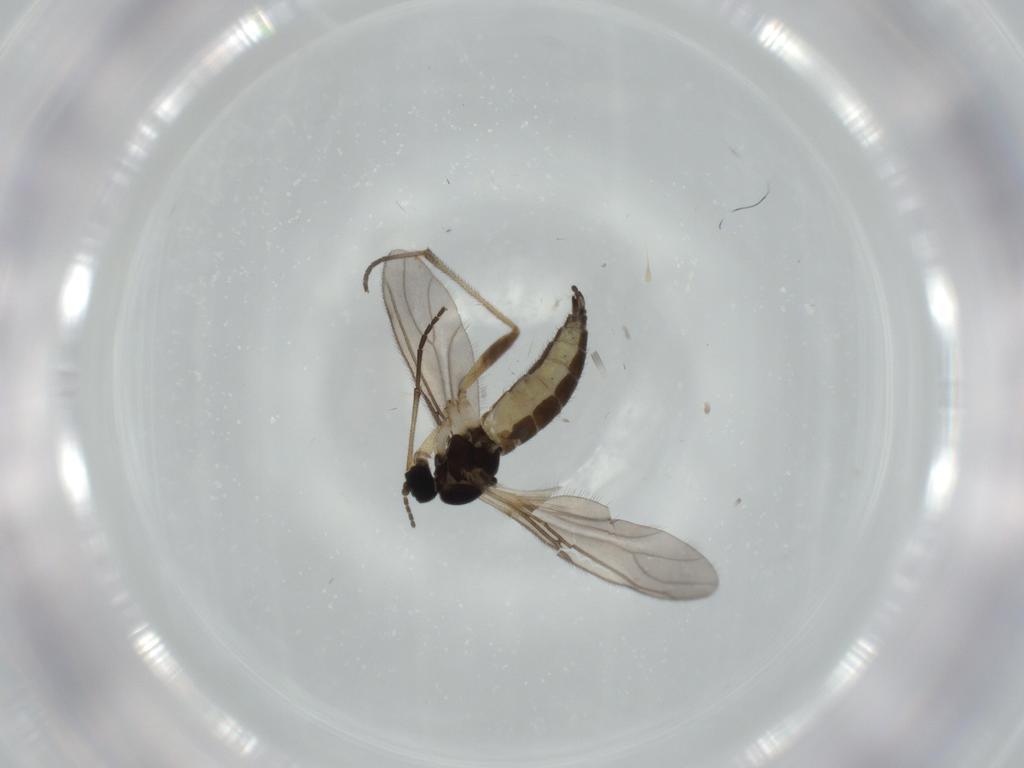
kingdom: Animalia
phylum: Arthropoda
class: Insecta
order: Diptera
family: Sciaridae
